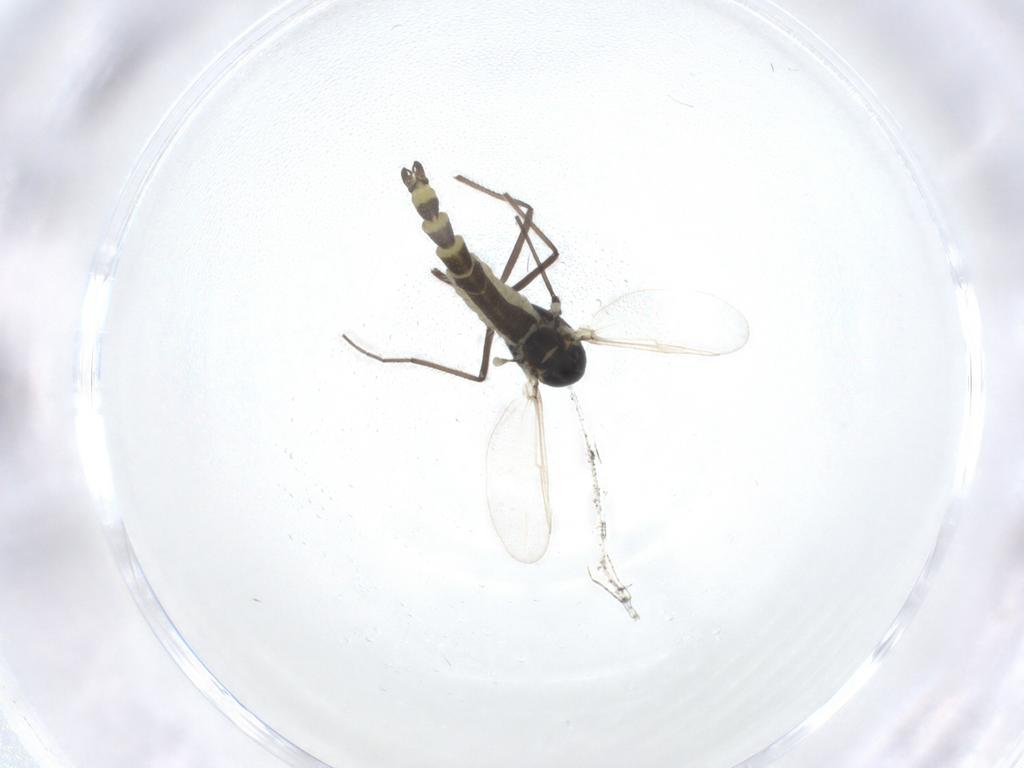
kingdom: Animalia
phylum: Arthropoda
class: Insecta
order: Diptera
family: Chironomidae
